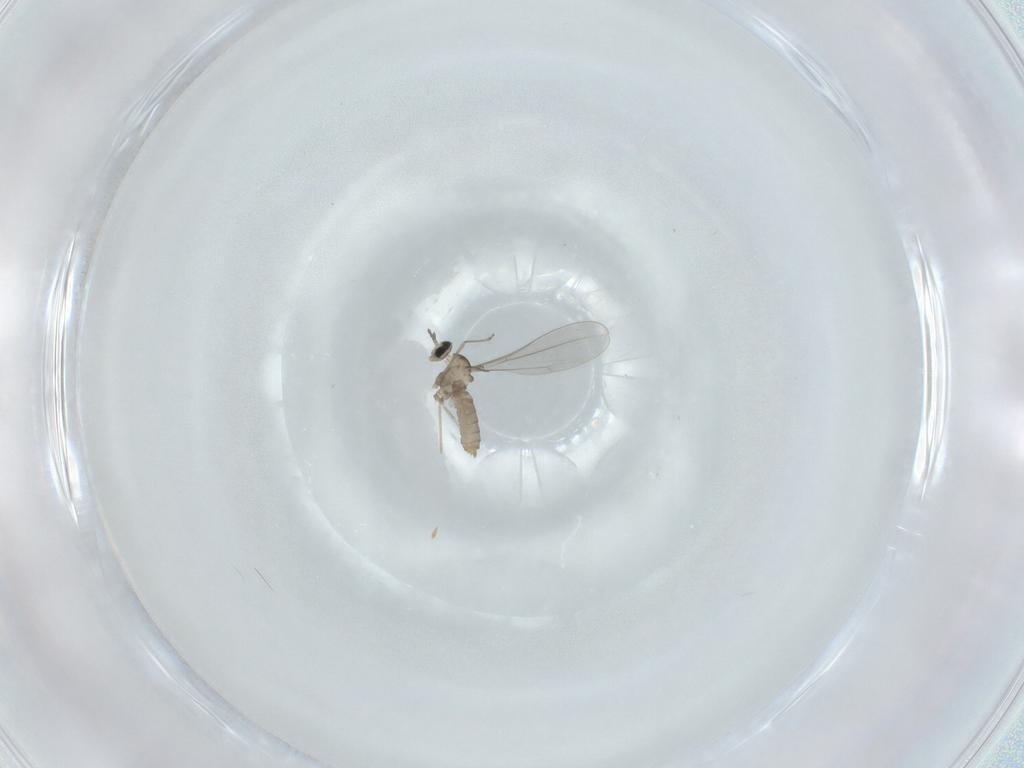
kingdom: Animalia
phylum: Arthropoda
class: Insecta
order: Diptera
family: Cecidomyiidae
